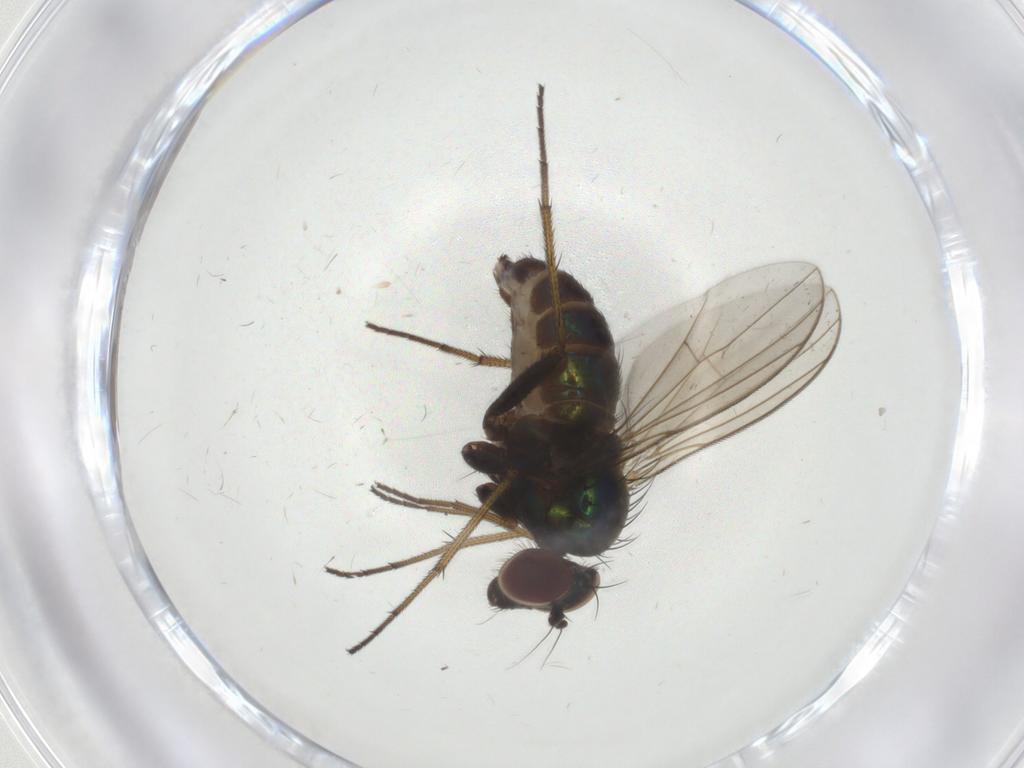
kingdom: Animalia
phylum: Arthropoda
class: Insecta
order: Diptera
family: Dolichopodidae
